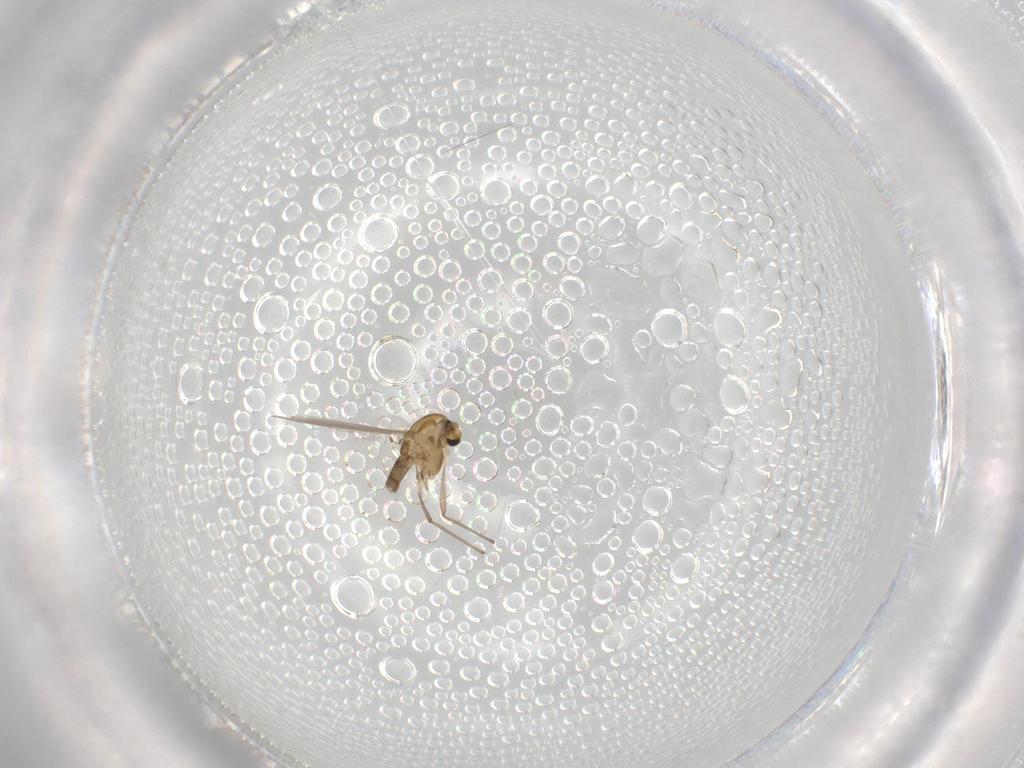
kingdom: Animalia
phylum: Arthropoda
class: Insecta
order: Diptera
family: Chironomidae
